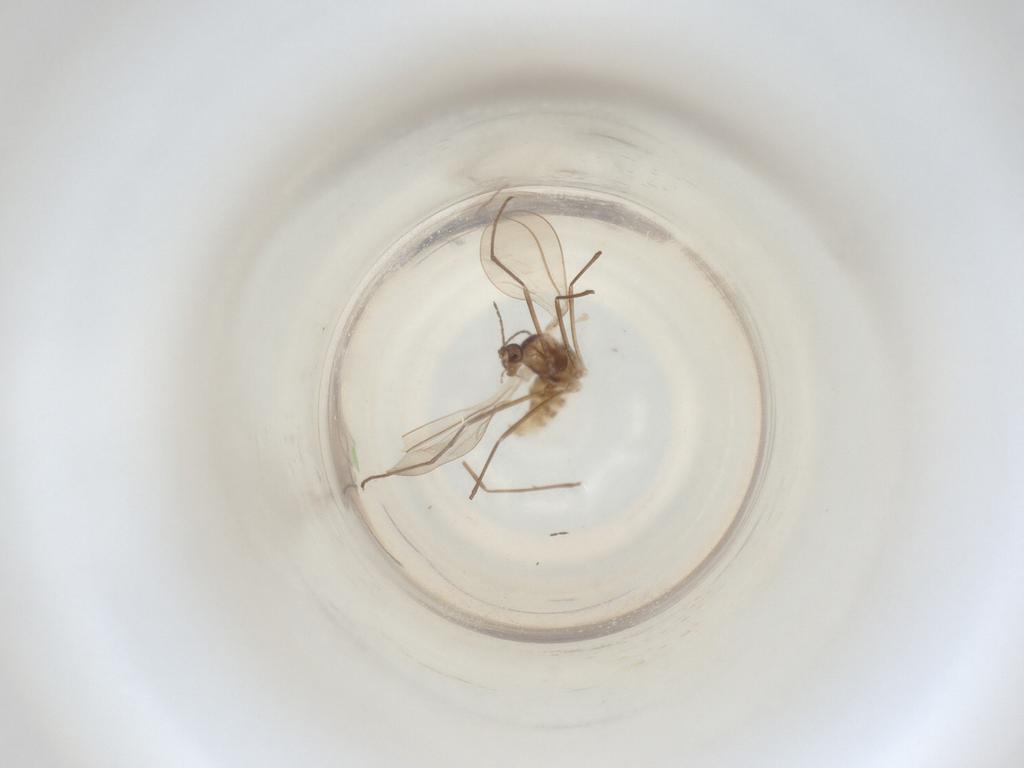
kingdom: Animalia
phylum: Arthropoda
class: Insecta
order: Diptera
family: Cecidomyiidae
